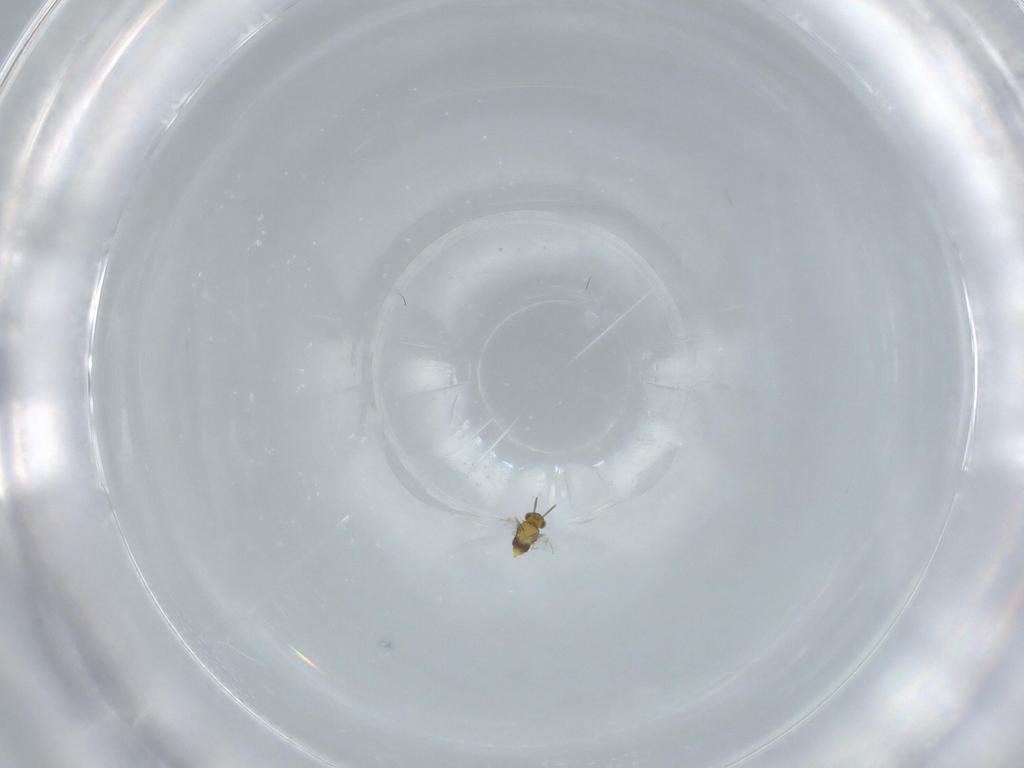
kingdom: Animalia
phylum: Arthropoda
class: Insecta
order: Hymenoptera
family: Aphelinidae
